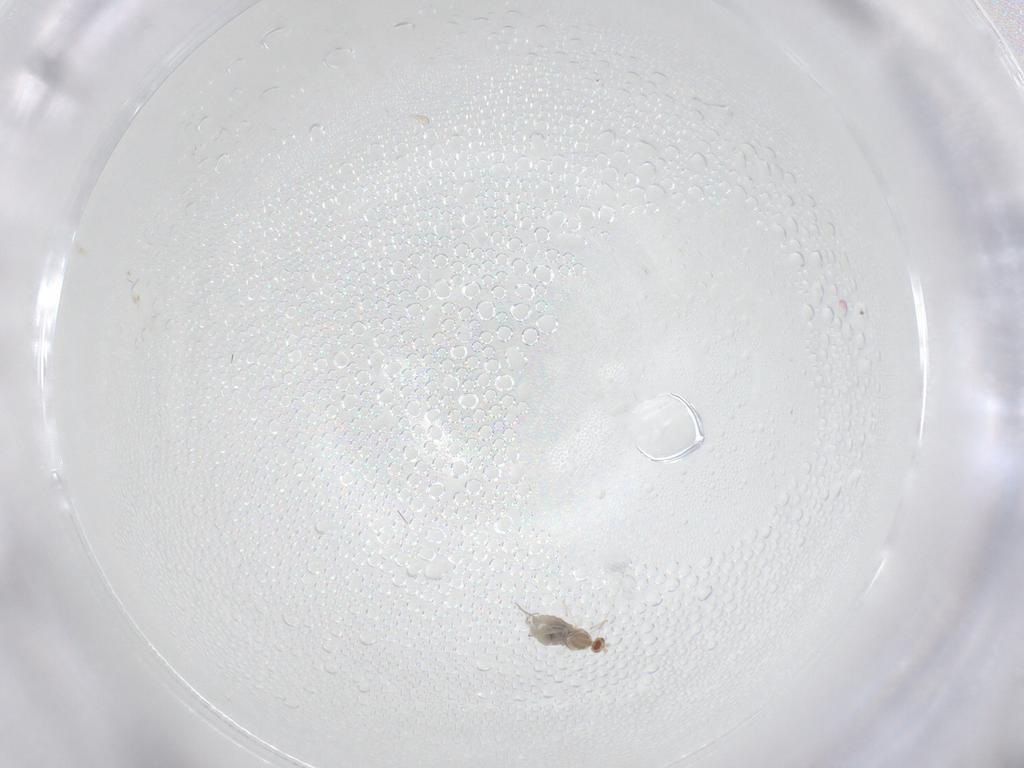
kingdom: Animalia
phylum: Arthropoda
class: Insecta
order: Diptera
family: Cecidomyiidae
